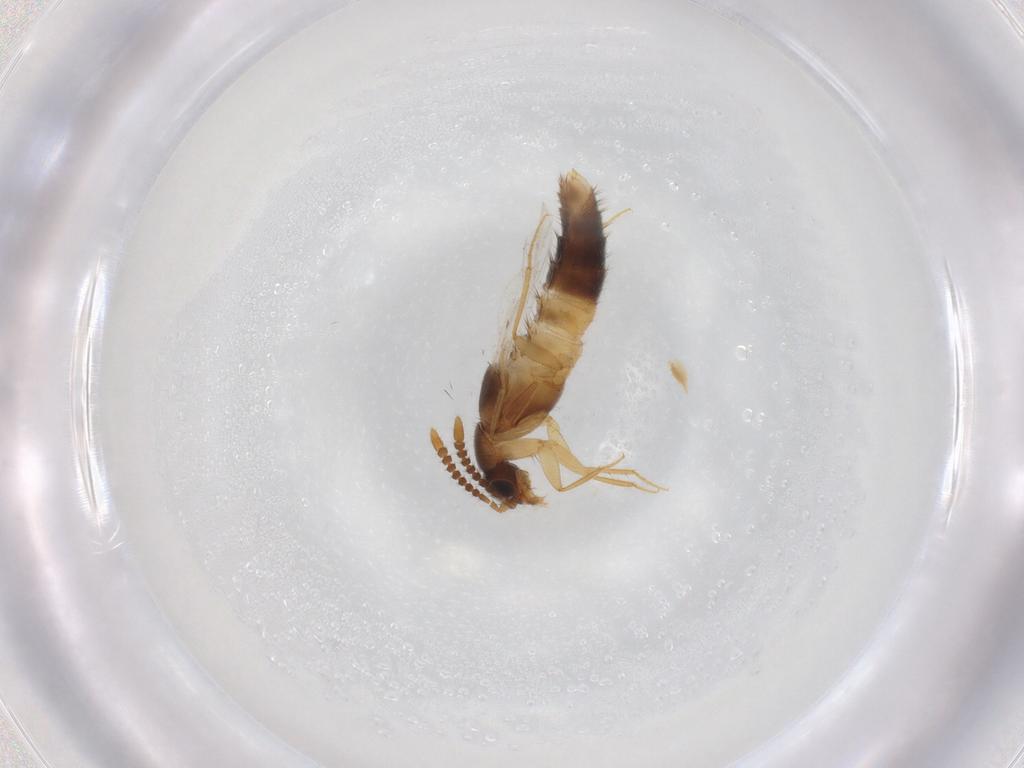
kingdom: Animalia
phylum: Arthropoda
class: Insecta
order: Coleoptera
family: Staphylinidae
